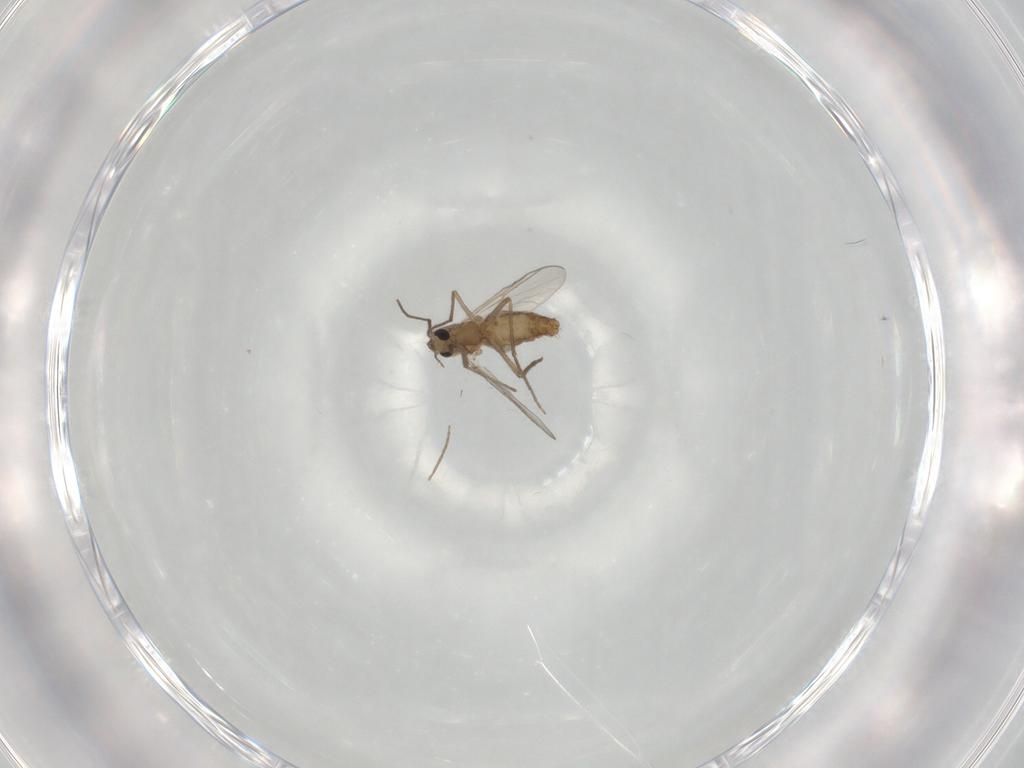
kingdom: Animalia
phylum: Arthropoda
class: Insecta
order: Diptera
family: Chironomidae
